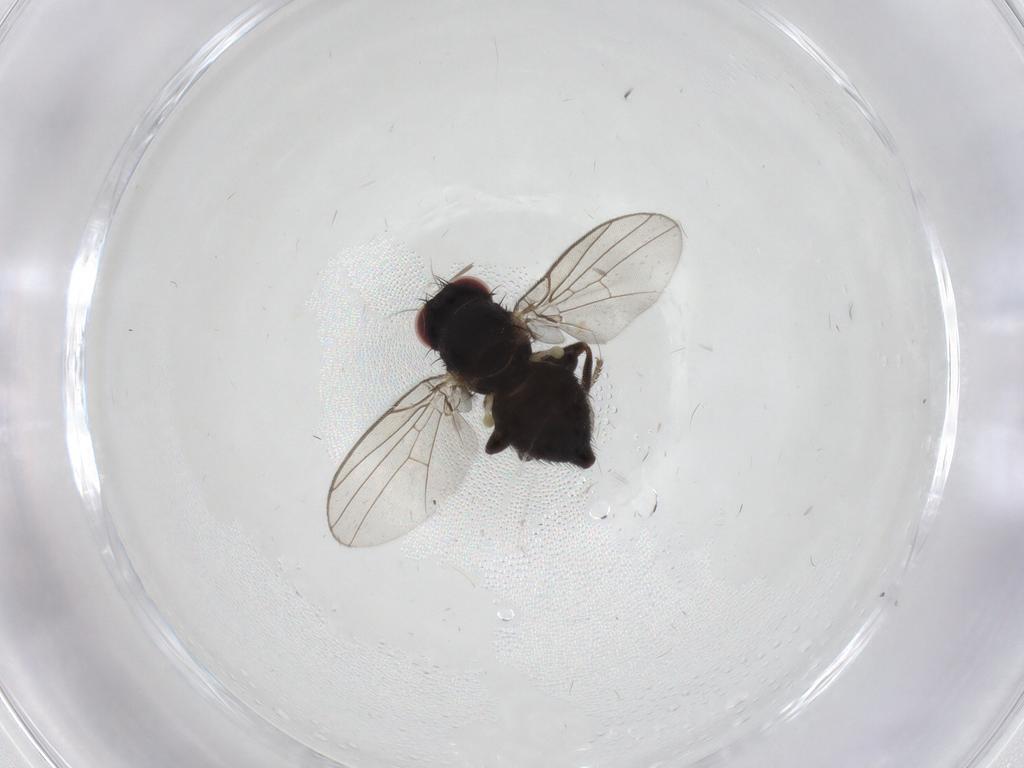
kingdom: Animalia
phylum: Arthropoda
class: Insecta
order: Diptera
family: Agromyzidae
